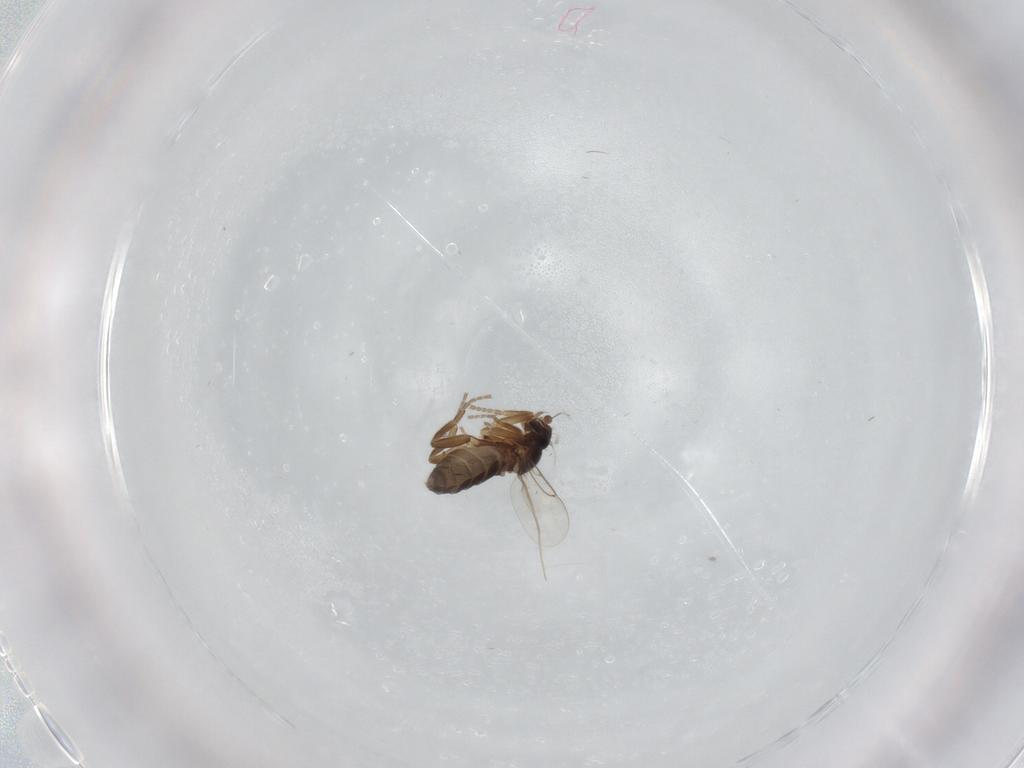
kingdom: Animalia
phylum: Arthropoda
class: Insecta
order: Diptera
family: Phoridae
